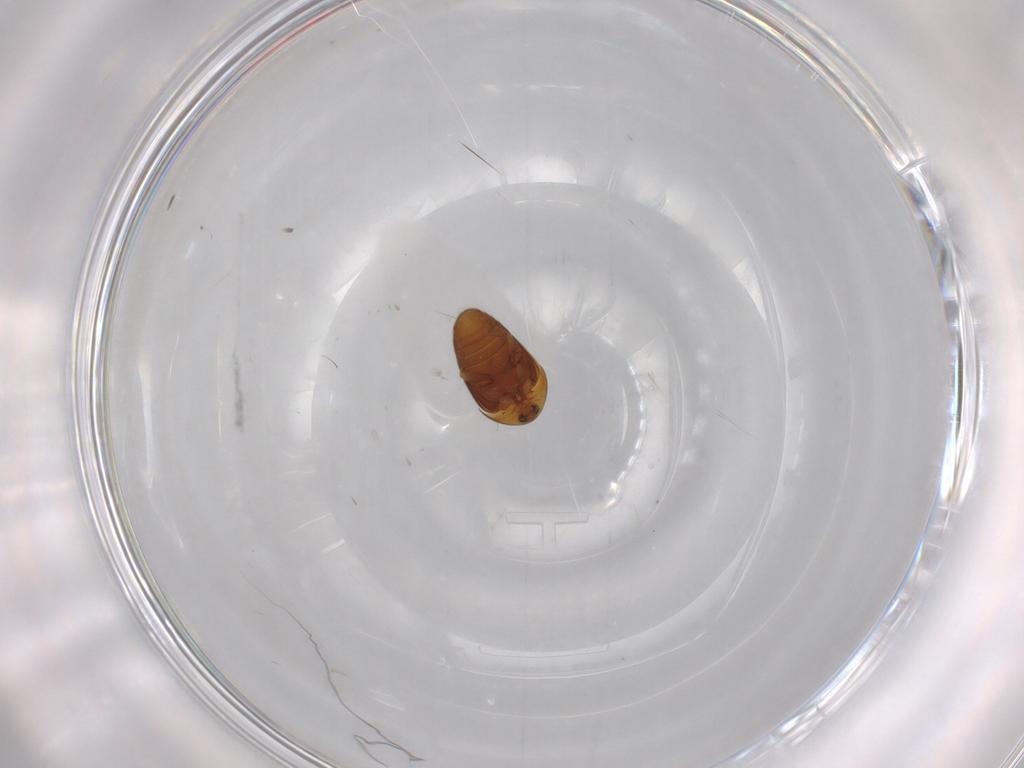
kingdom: Animalia
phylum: Arthropoda
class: Insecta
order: Coleoptera
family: Corylophidae
